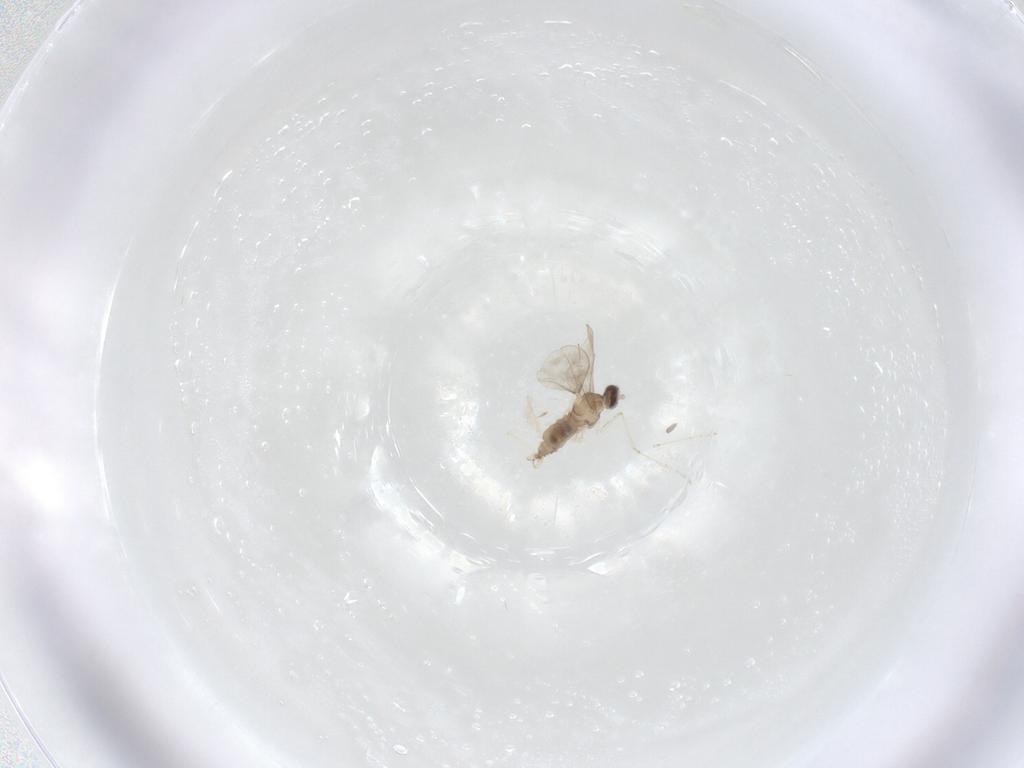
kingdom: Animalia
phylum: Arthropoda
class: Insecta
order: Diptera
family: Cecidomyiidae
